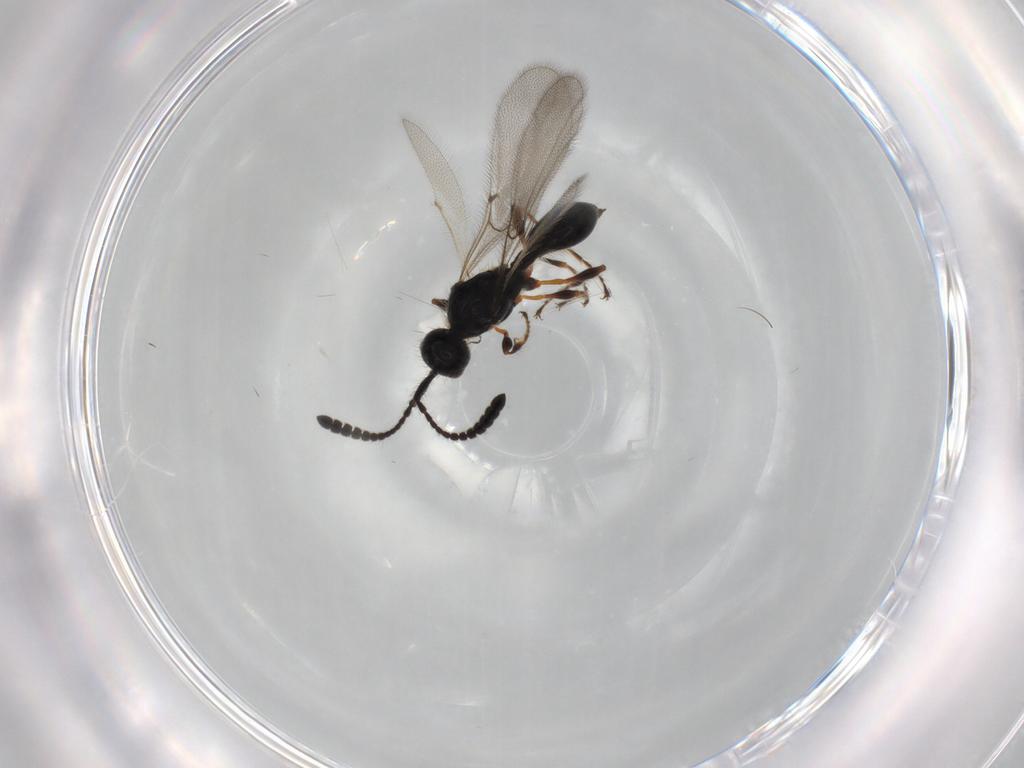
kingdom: Animalia
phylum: Arthropoda
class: Insecta
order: Hymenoptera
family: Diapriidae
